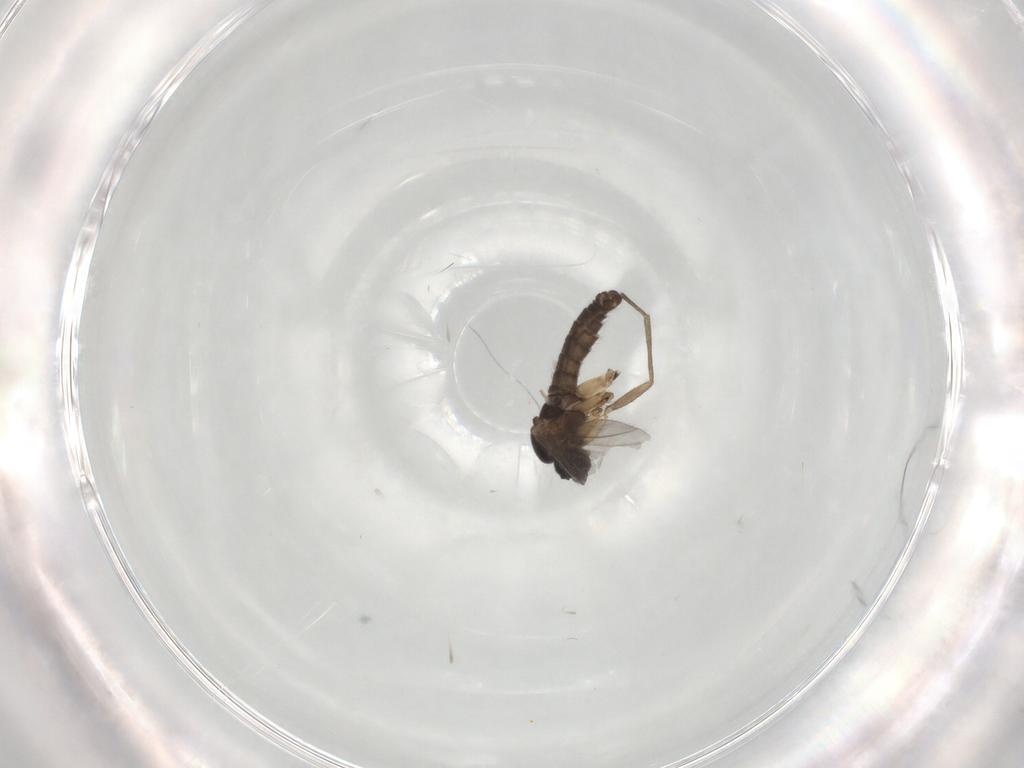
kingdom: Animalia
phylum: Arthropoda
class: Insecta
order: Diptera
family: Sciaridae
